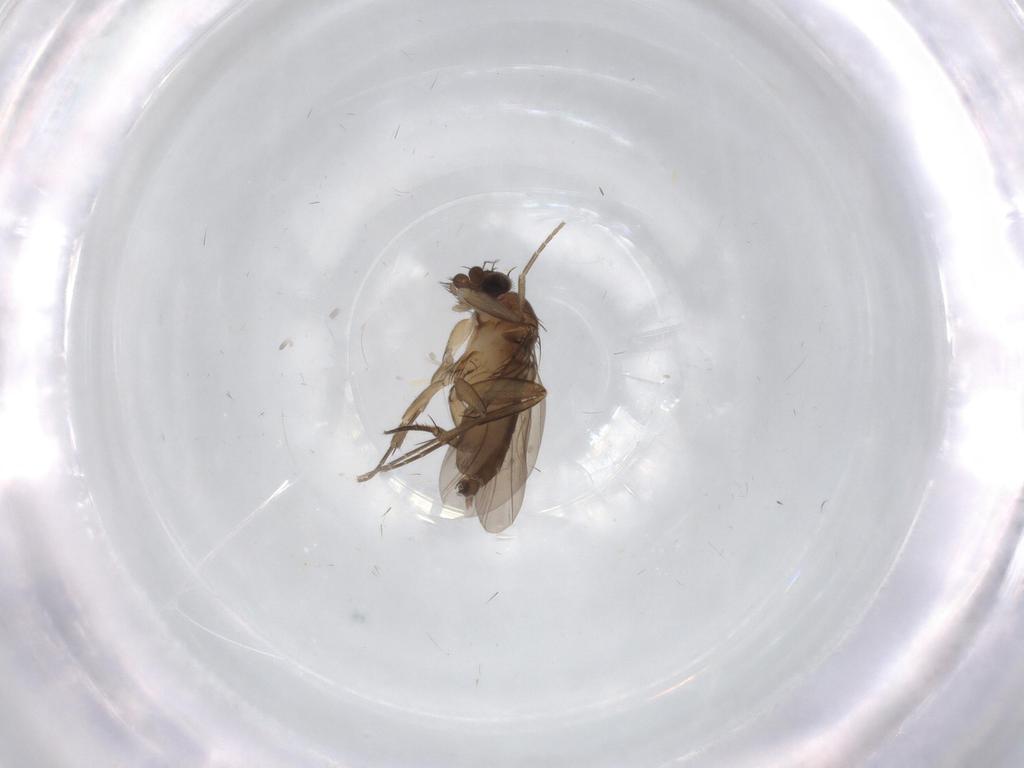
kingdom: Animalia
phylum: Arthropoda
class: Insecta
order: Diptera
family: Phoridae
